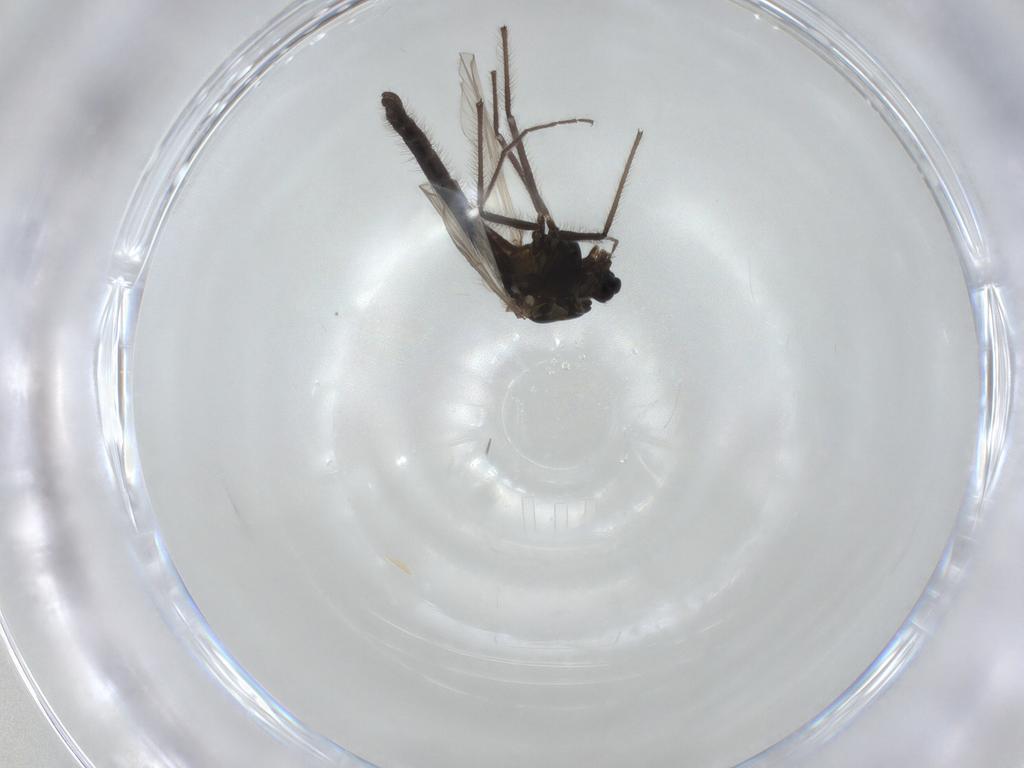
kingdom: Animalia
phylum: Arthropoda
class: Insecta
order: Diptera
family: Chironomidae
